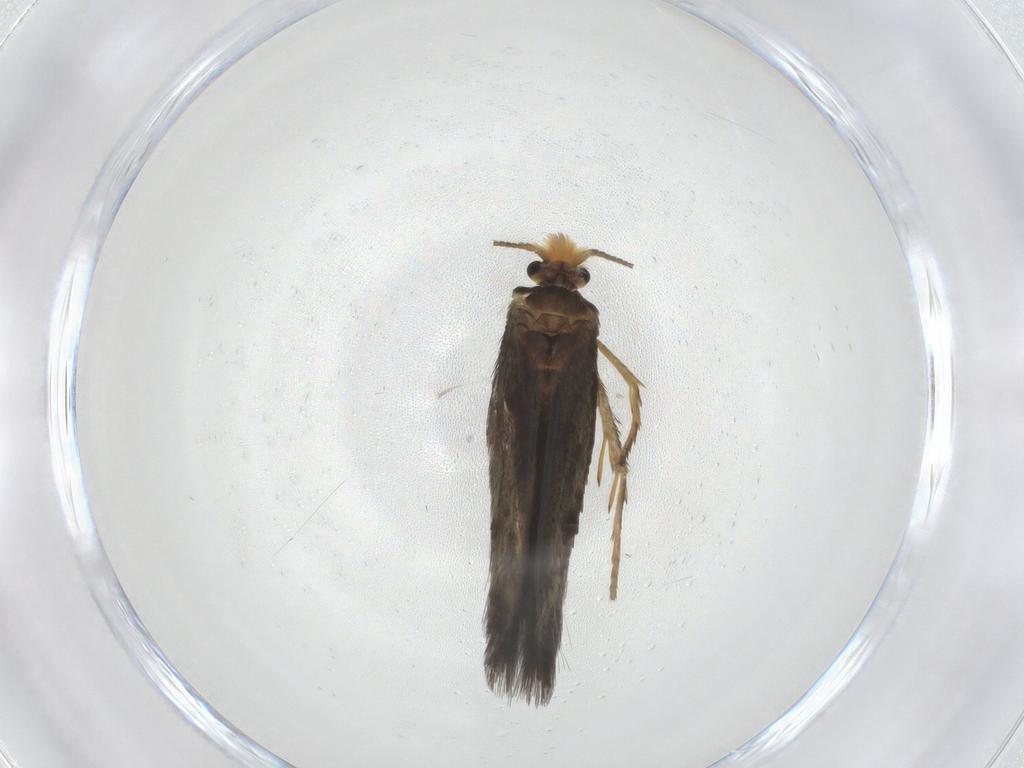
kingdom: Animalia
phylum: Arthropoda
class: Insecta
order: Lepidoptera
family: Nepticulidae
